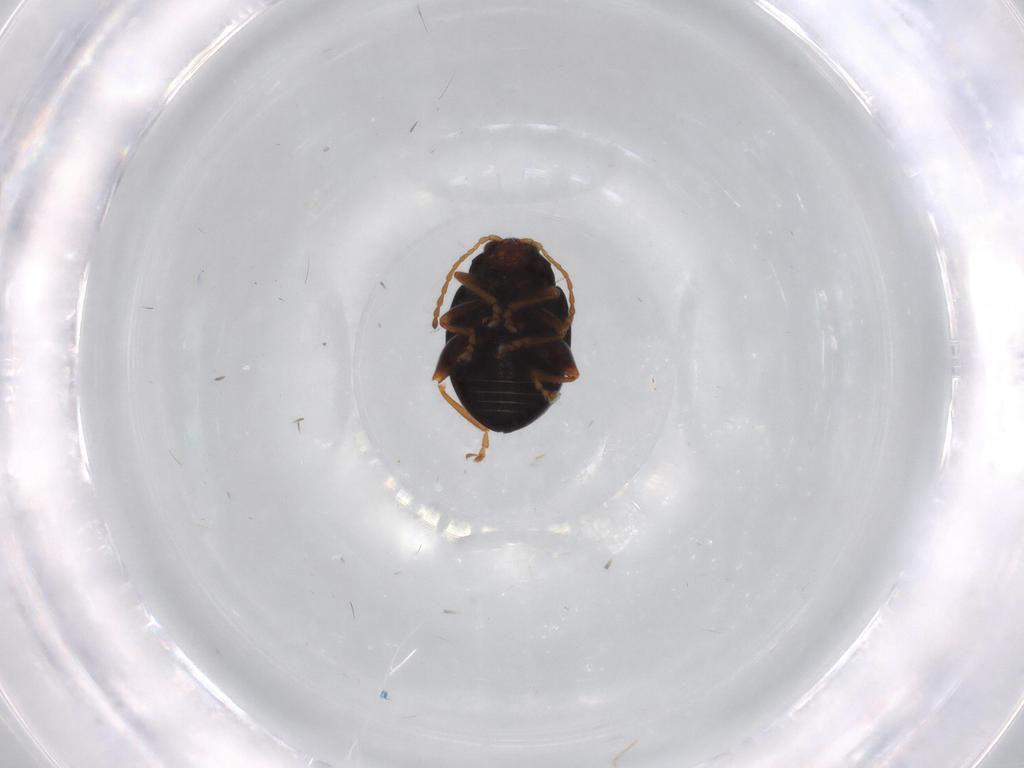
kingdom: Animalia
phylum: Arthropoda
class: Insecta
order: Coleoptera
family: Chrysomelidae
